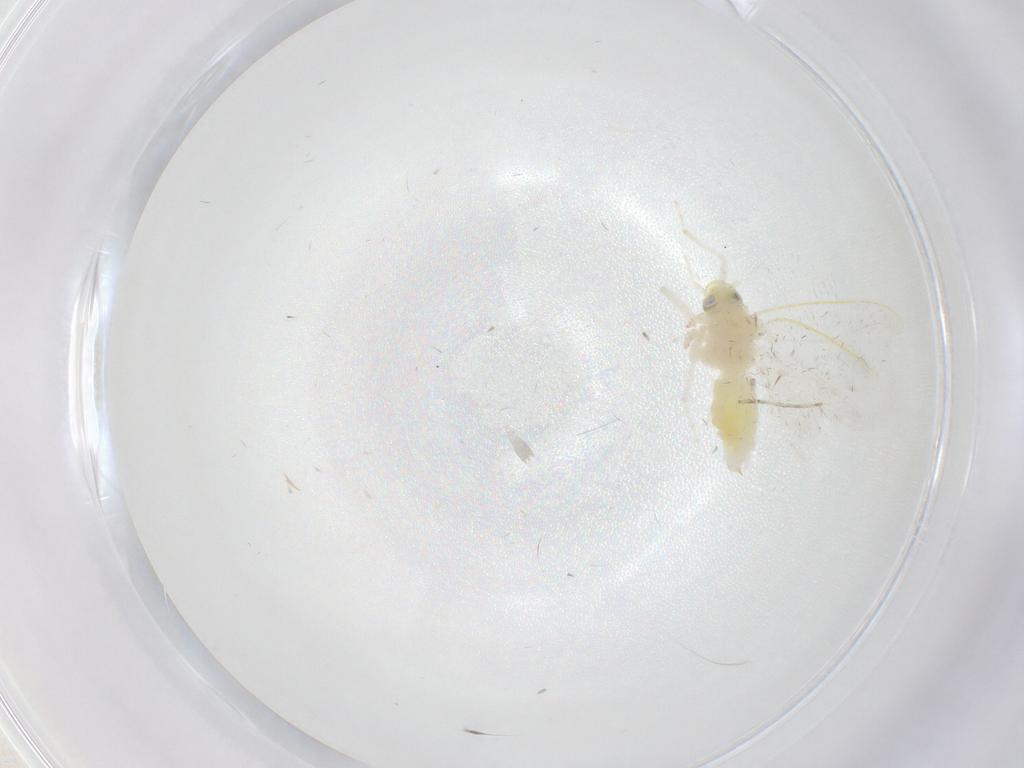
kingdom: Animalia
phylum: Arthropoda
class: Insecta
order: Hemiptera
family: Aleyrodidae
